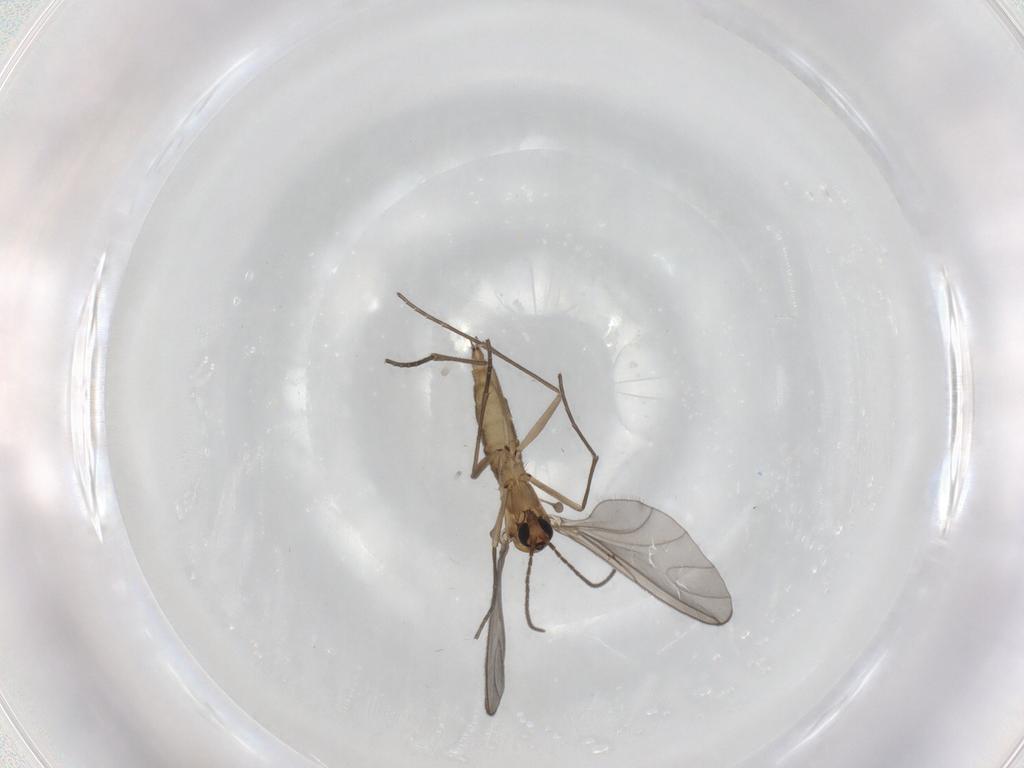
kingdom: Animalia
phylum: Arthropoda
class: Insecta
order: Diptera
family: Sciaridae
